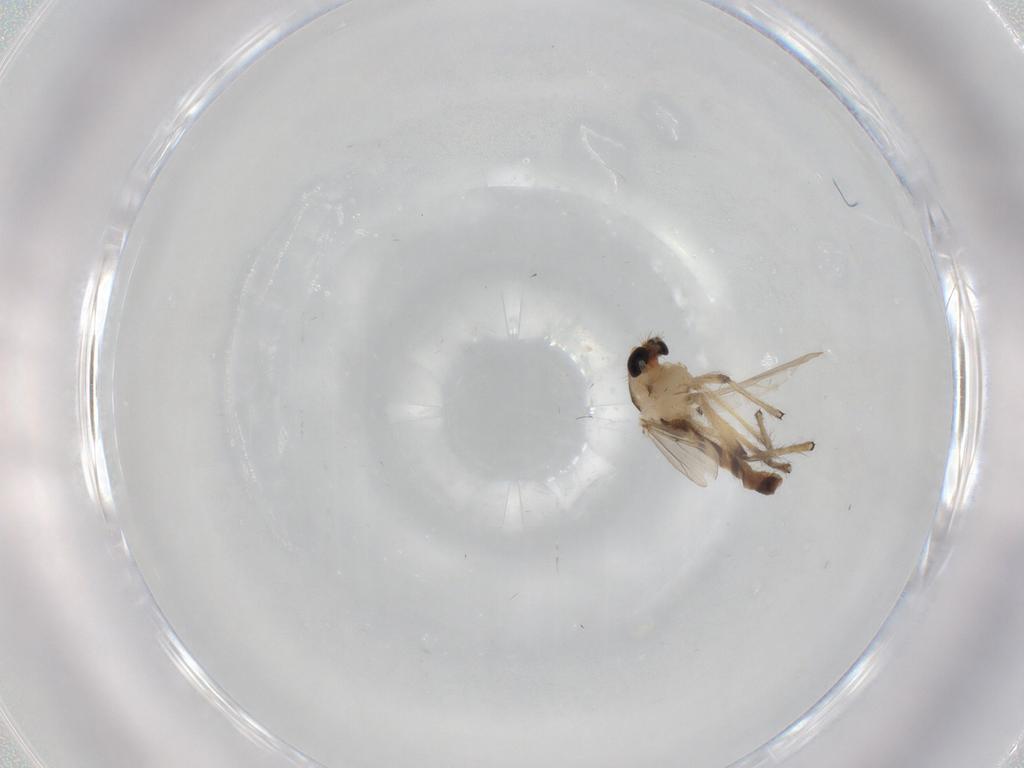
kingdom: Animalia
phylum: Arthropoda
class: Insecta
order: Diptera
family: Chironomidae
